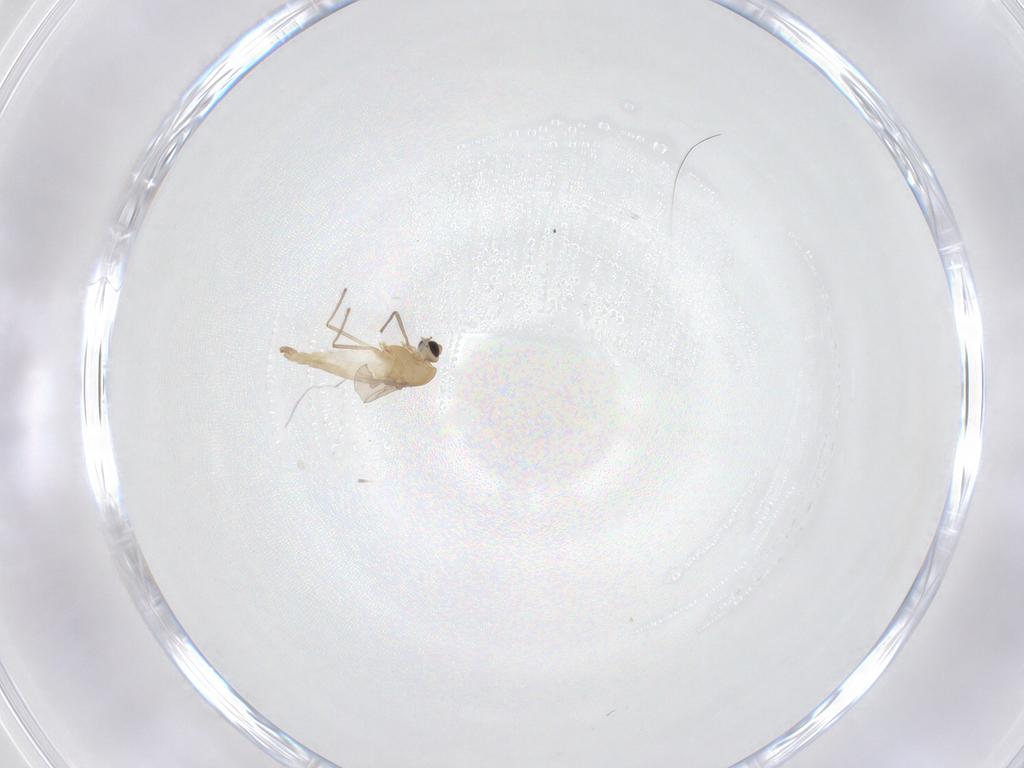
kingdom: Animalia
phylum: Arthropoda
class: Insecta
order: Diptera
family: Chironomidae
